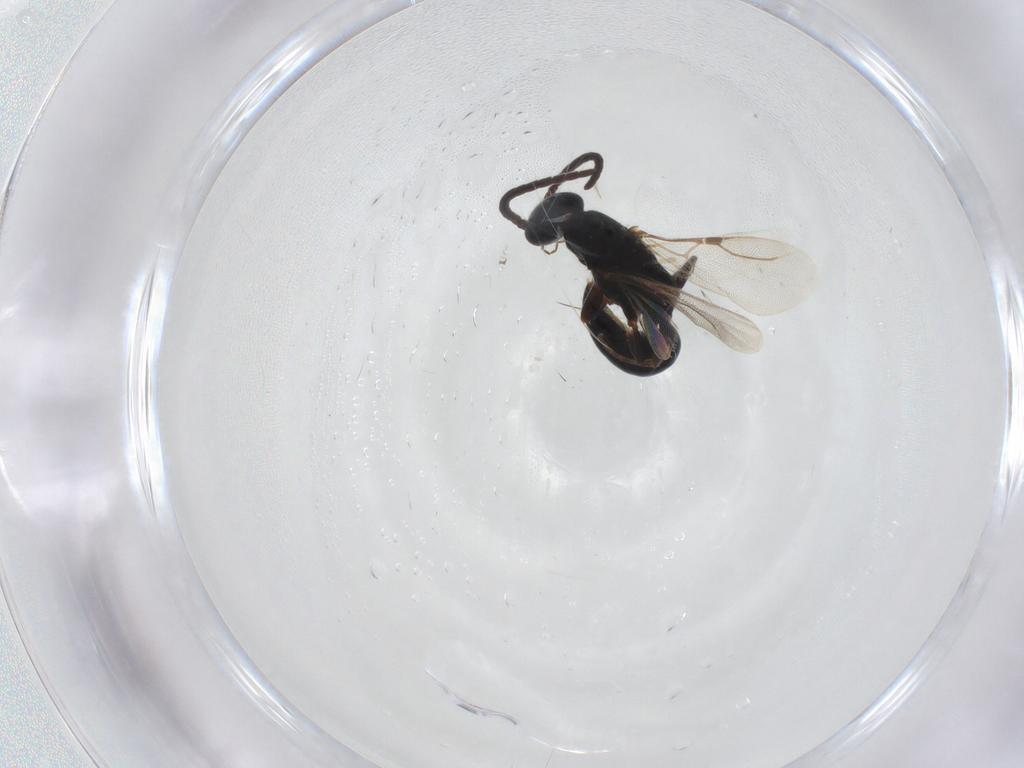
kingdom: Animalia
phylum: Arthropoda
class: Insecta
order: Hymenoptera
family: Bethylidae
